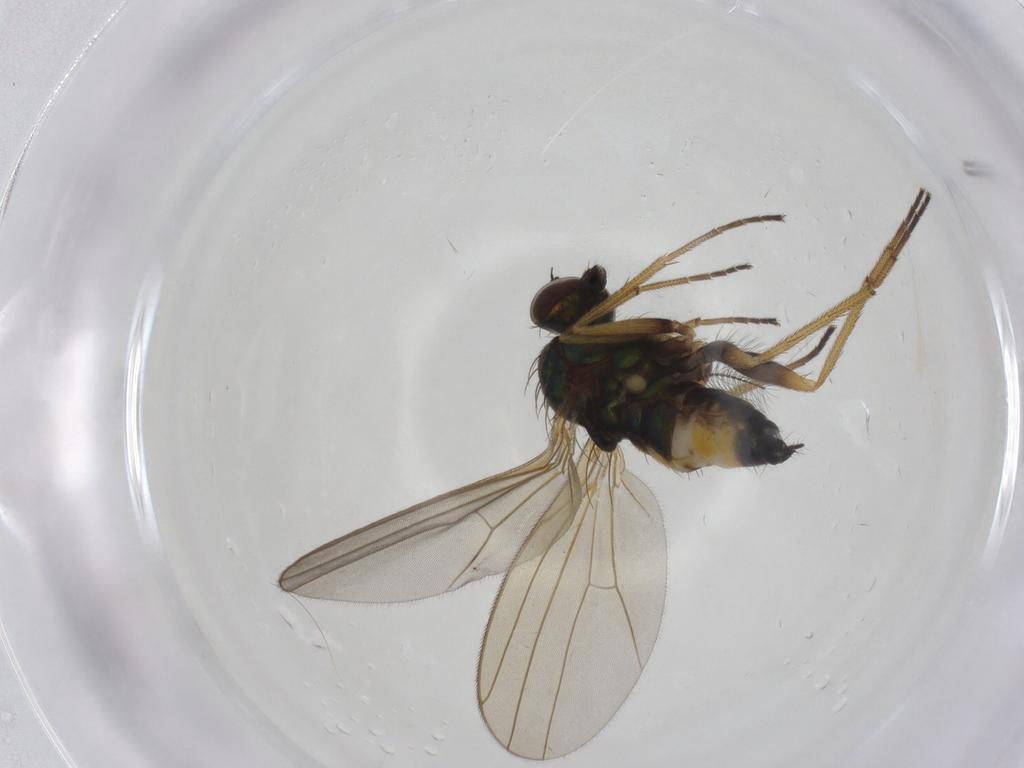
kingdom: Animalia
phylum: Arthropoda
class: Insecta
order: Diptera
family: Dolichopodidae
